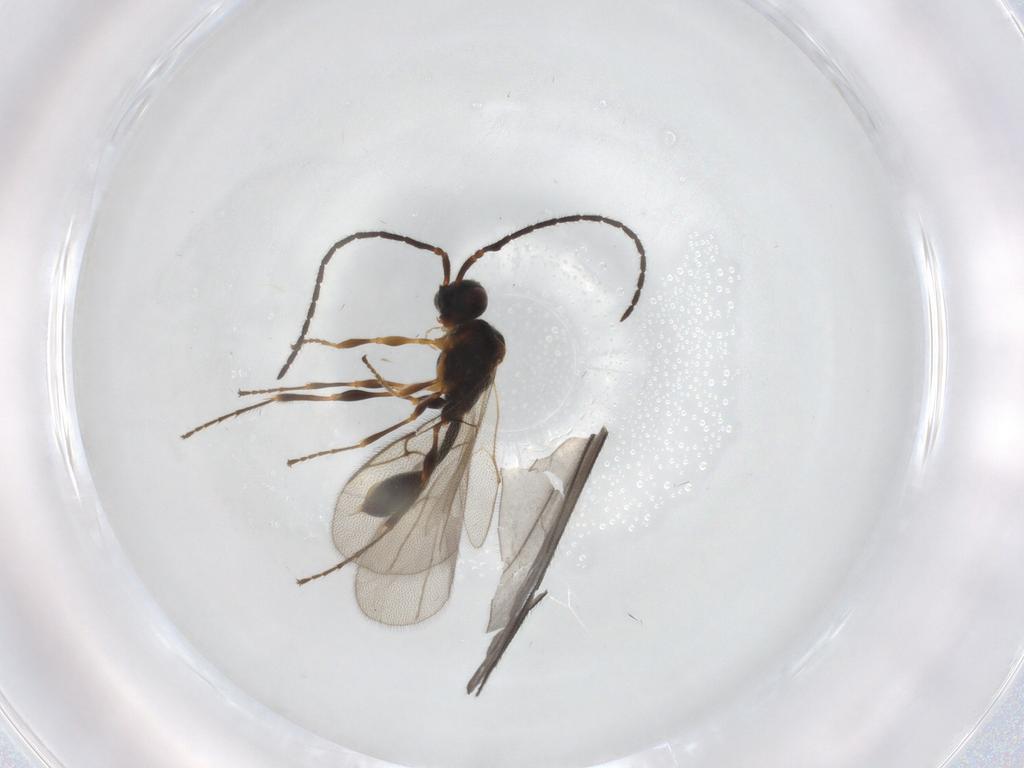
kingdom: Animalia
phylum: Arthropoda
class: Insecta
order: Hymenoptera
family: Diapriidae
